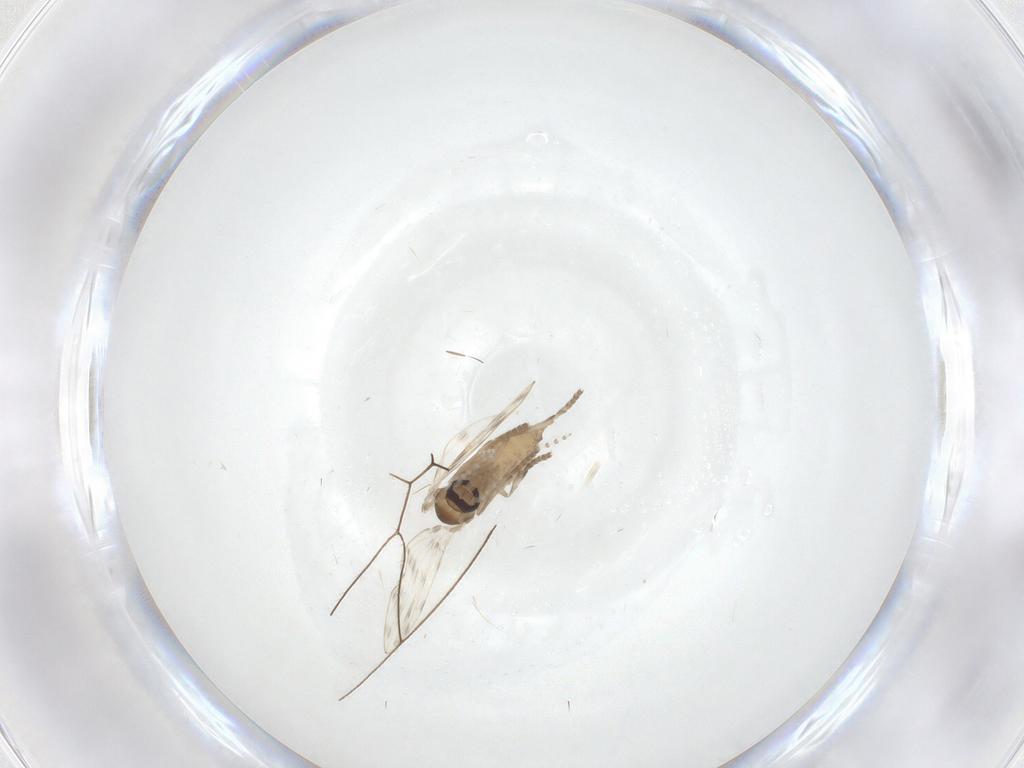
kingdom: Animalia
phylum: Arthropoda
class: Insecta
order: Diptera
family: Psychodidae
